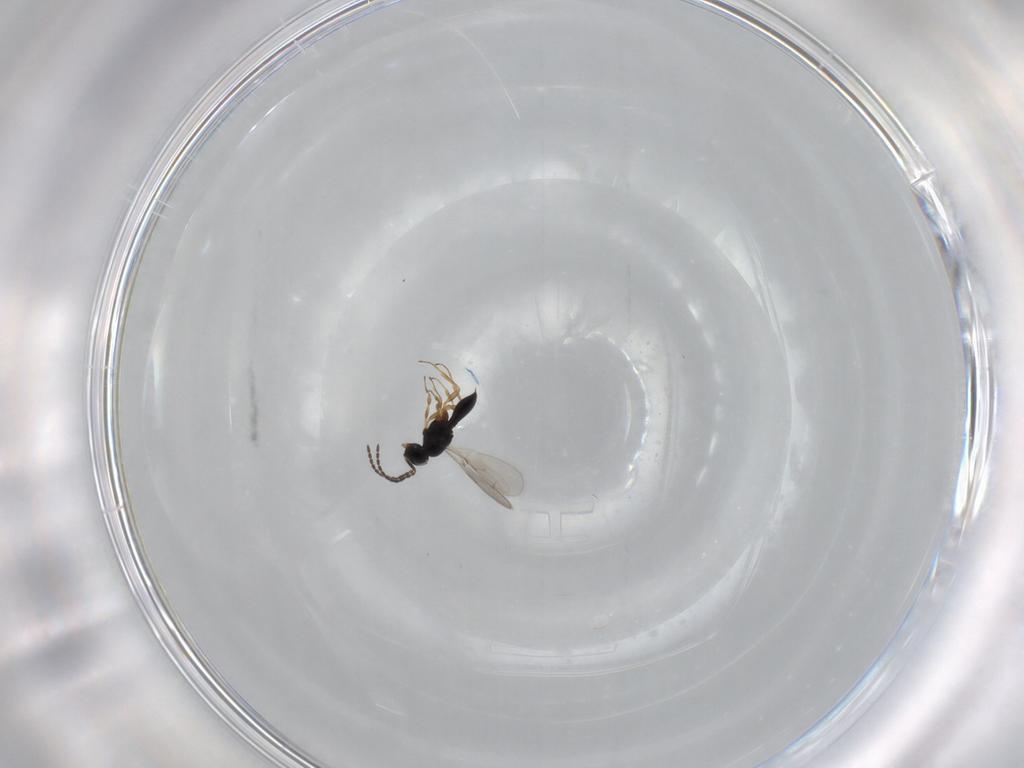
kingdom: Animalia
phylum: Arthropoda
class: Insecta
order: Hymenoptera
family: Scelionidae
